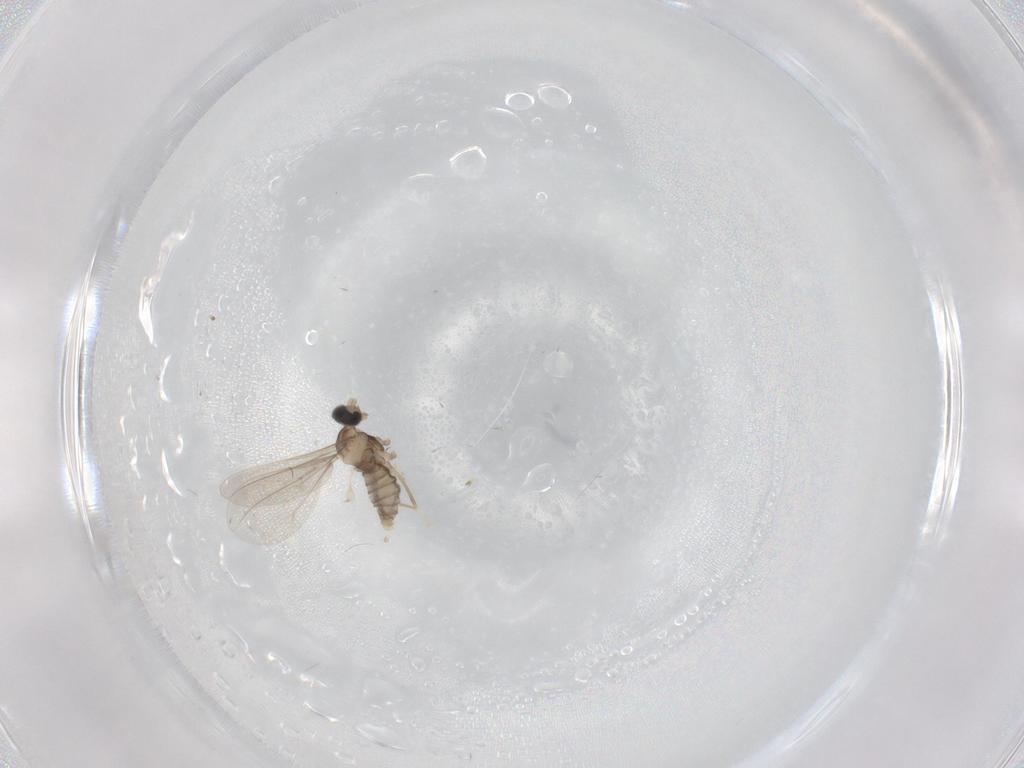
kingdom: Animalia
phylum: Arthropoda
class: Insecta
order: Diptera
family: Cecidomyiidae
